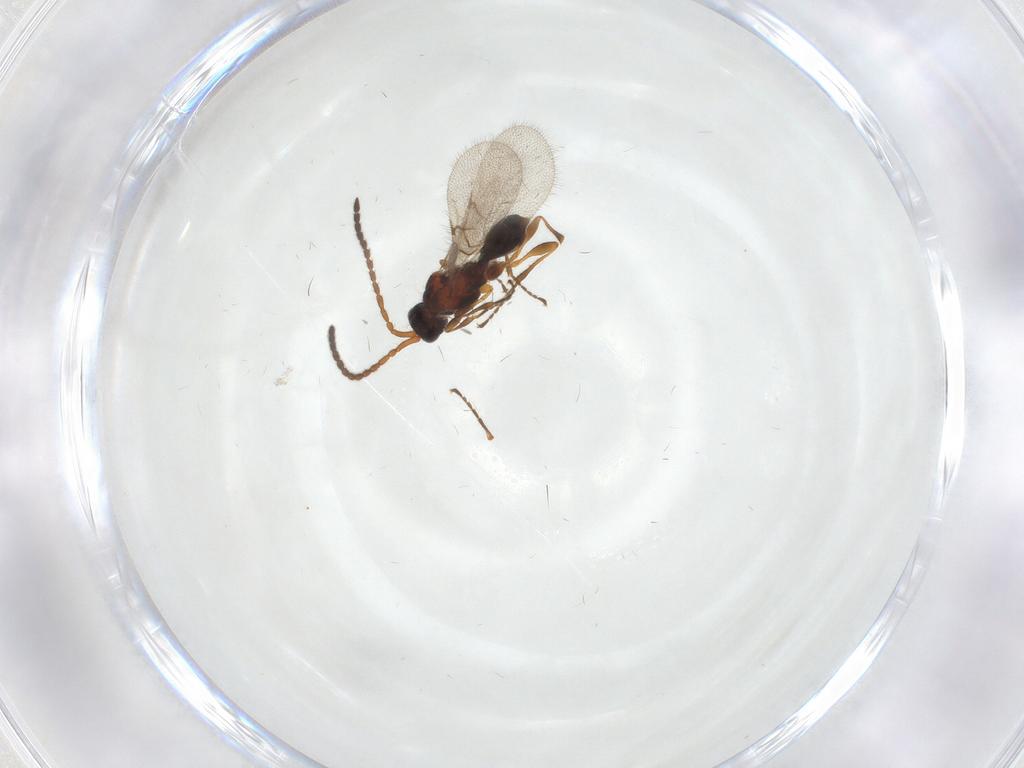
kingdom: Animalia
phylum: Arthropoda
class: Insecta
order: Hymenoptera
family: Diapriidae
